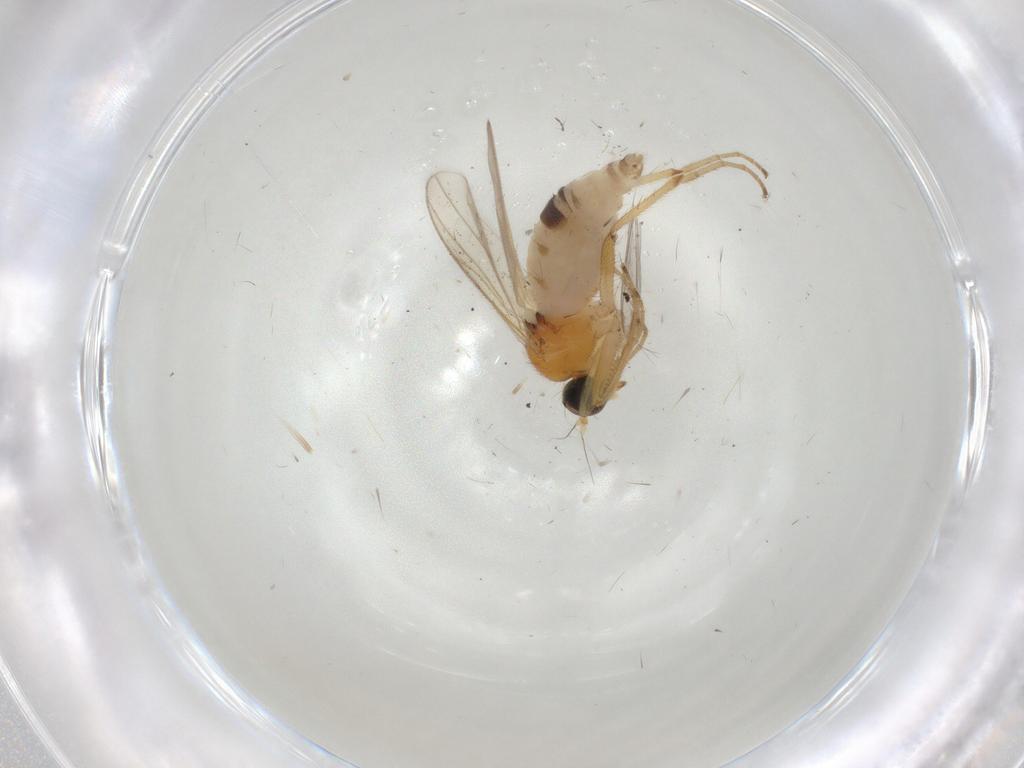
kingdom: Animalia
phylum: Arthropoda
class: Insecta
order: Diptera
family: Hybotidae
